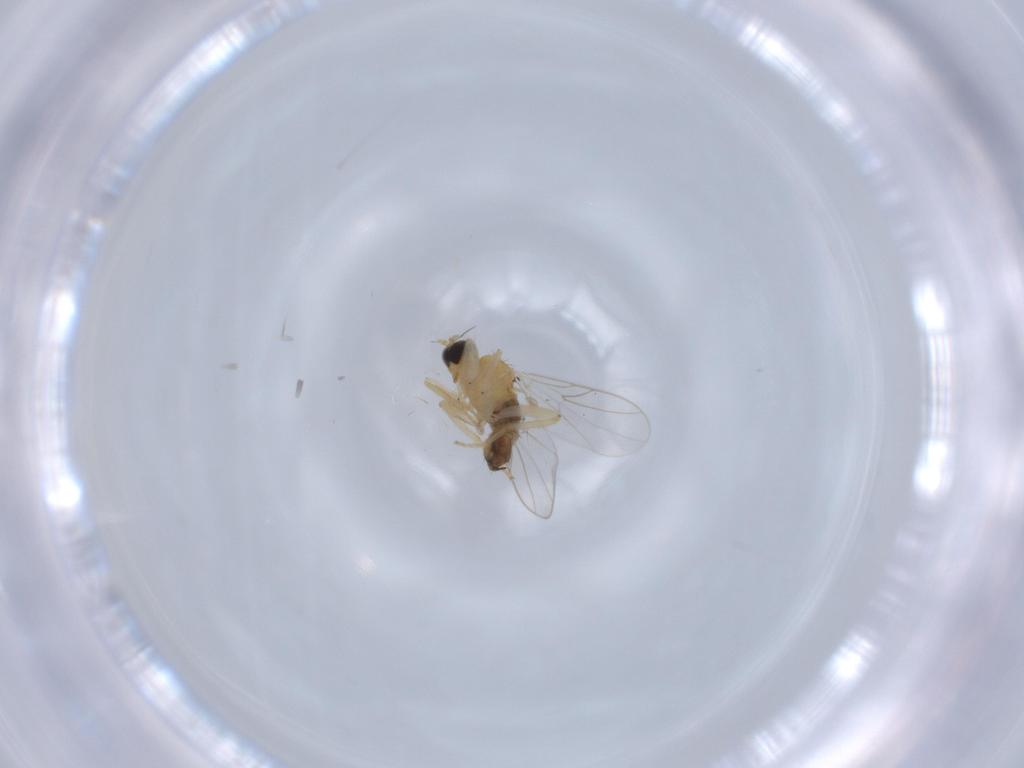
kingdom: Animalia
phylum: Arthropoda
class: Insecta
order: Diptera
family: Hybotidae
